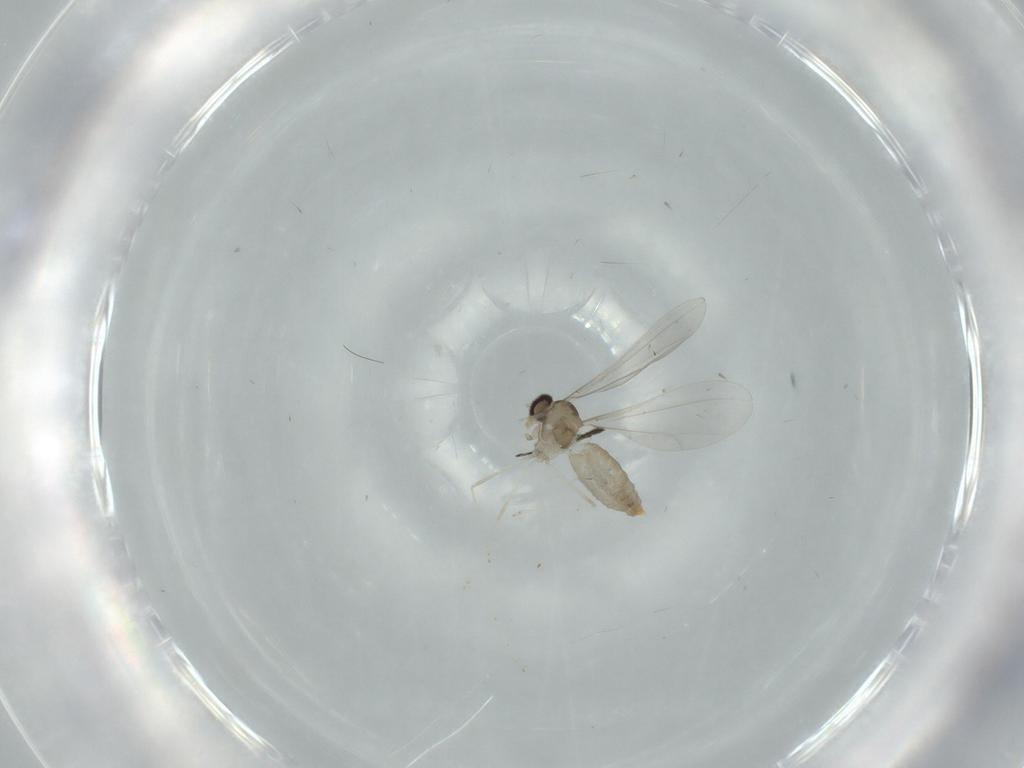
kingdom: Animalia
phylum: Arthropoda
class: Insecta
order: Diptera
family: Cecidomyiidae
